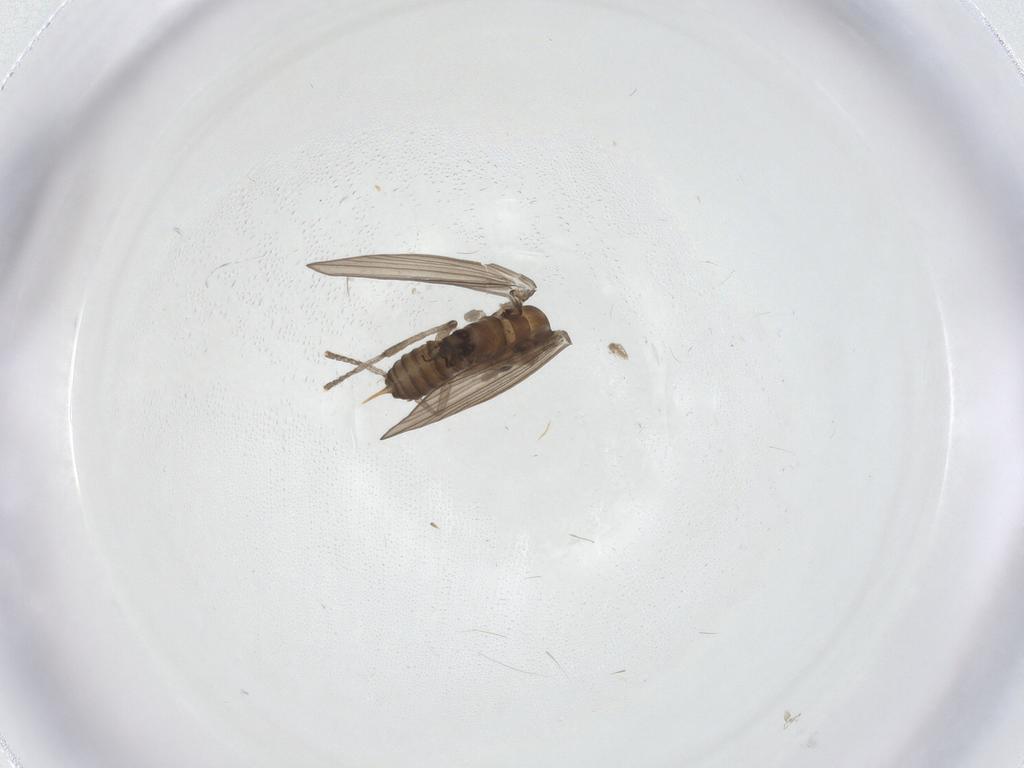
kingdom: Animalia
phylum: Arthropoda
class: Insecta
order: Diptera
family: Psychodidae
